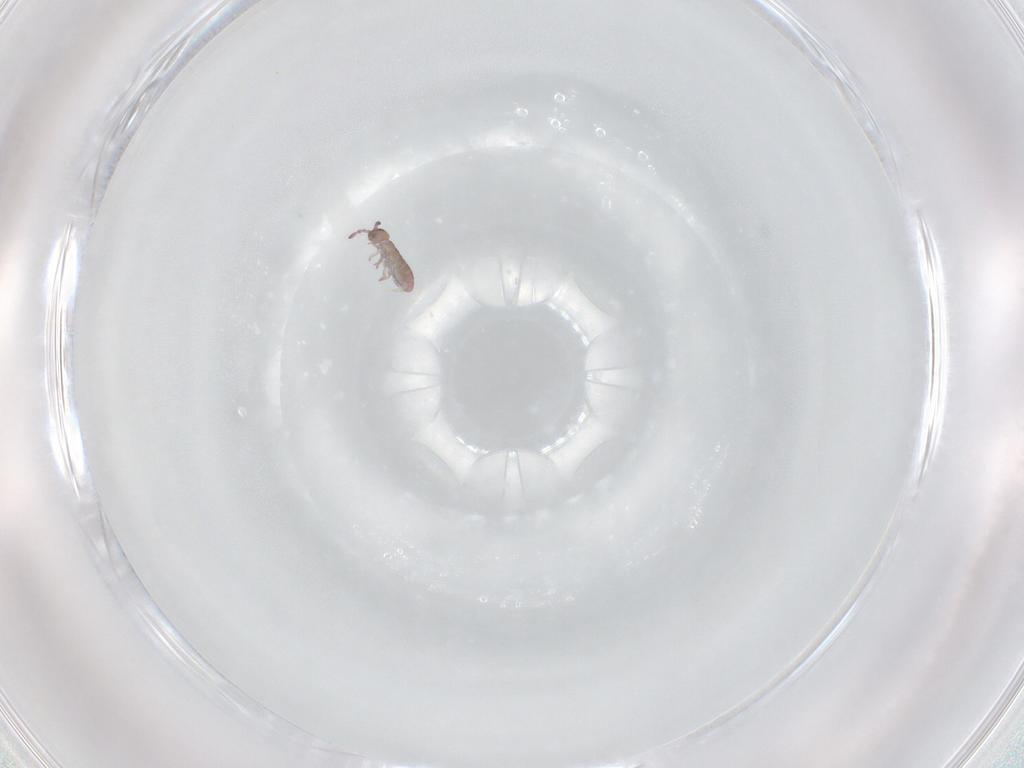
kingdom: Animalia
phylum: Arthropoda
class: Collembola
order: Entomobryomorpha
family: Isotomidae
